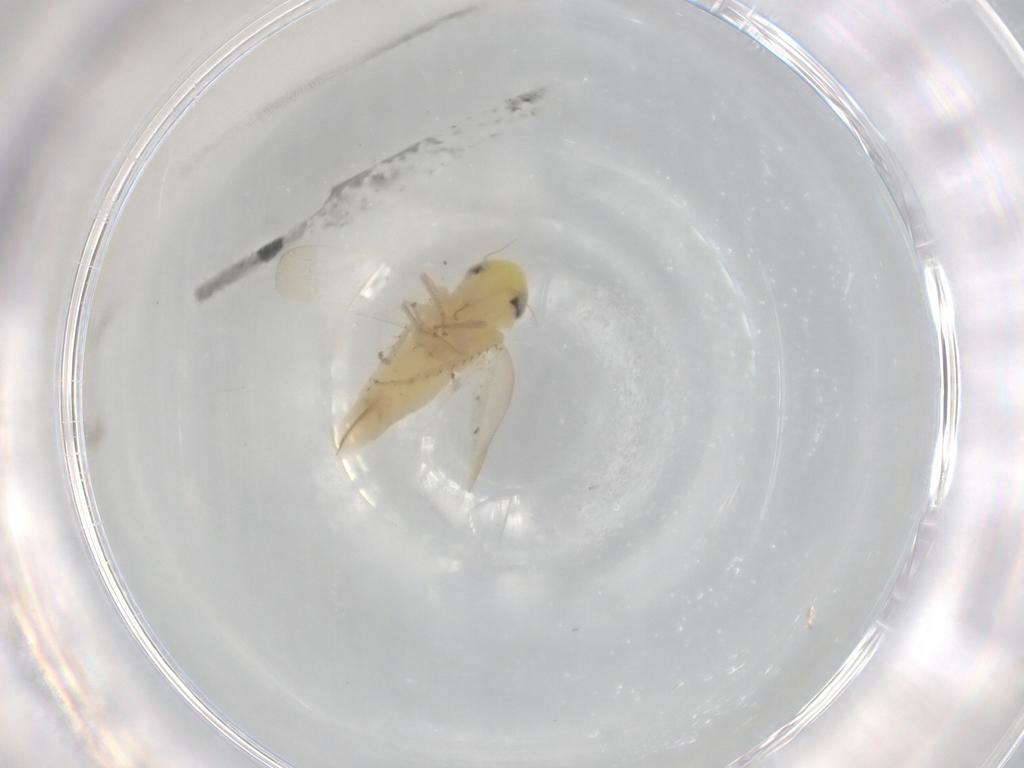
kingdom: Animalia
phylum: Arthropoda
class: Insecta
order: Hemiptera
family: Cicadellidae
